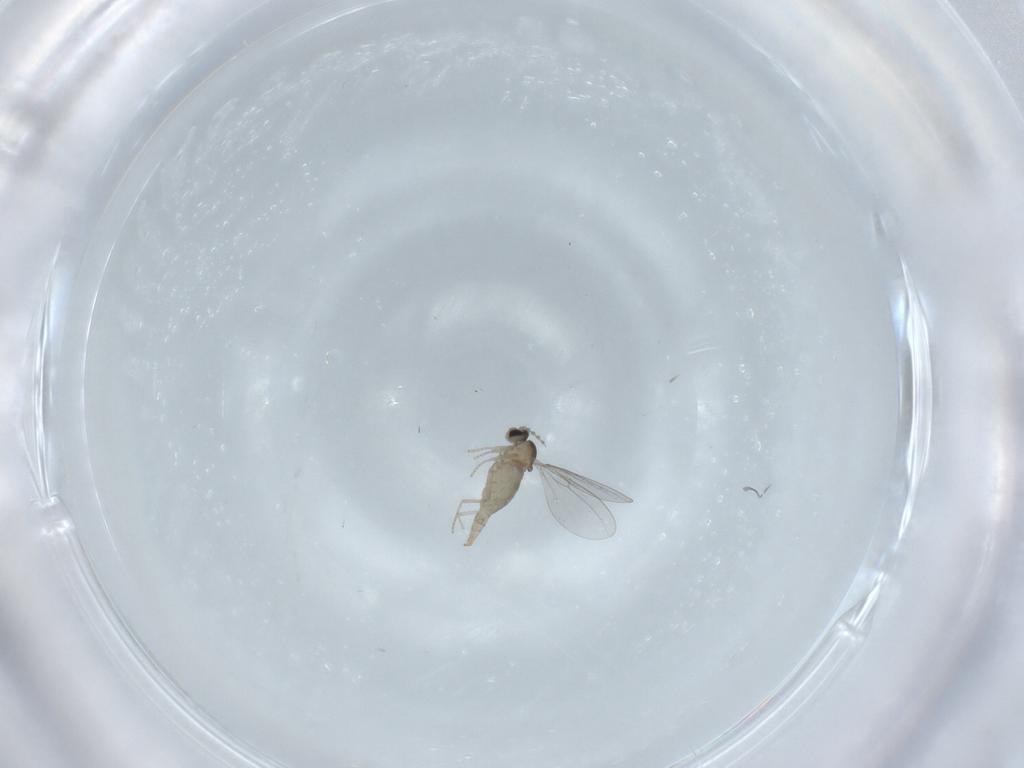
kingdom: Animalia
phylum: Arthropoda
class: Insecta
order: Diptera
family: Cecidomyiidae
